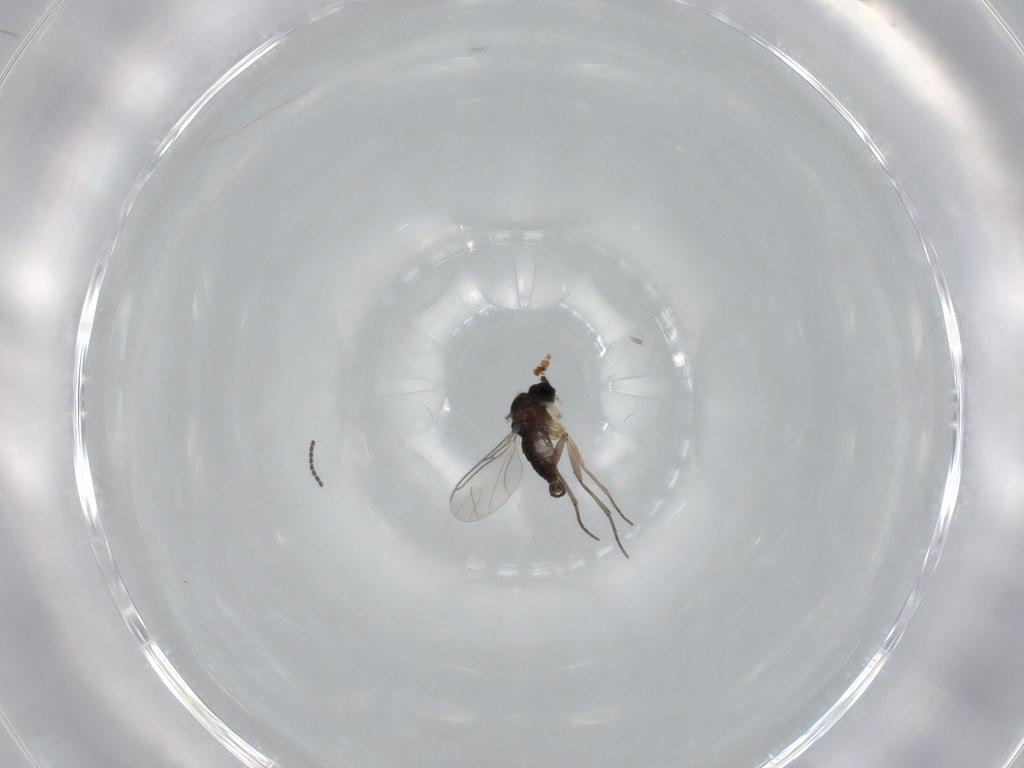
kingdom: Animalia
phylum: Arthropoda
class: Insecta
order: Diptera
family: Sciaridae
